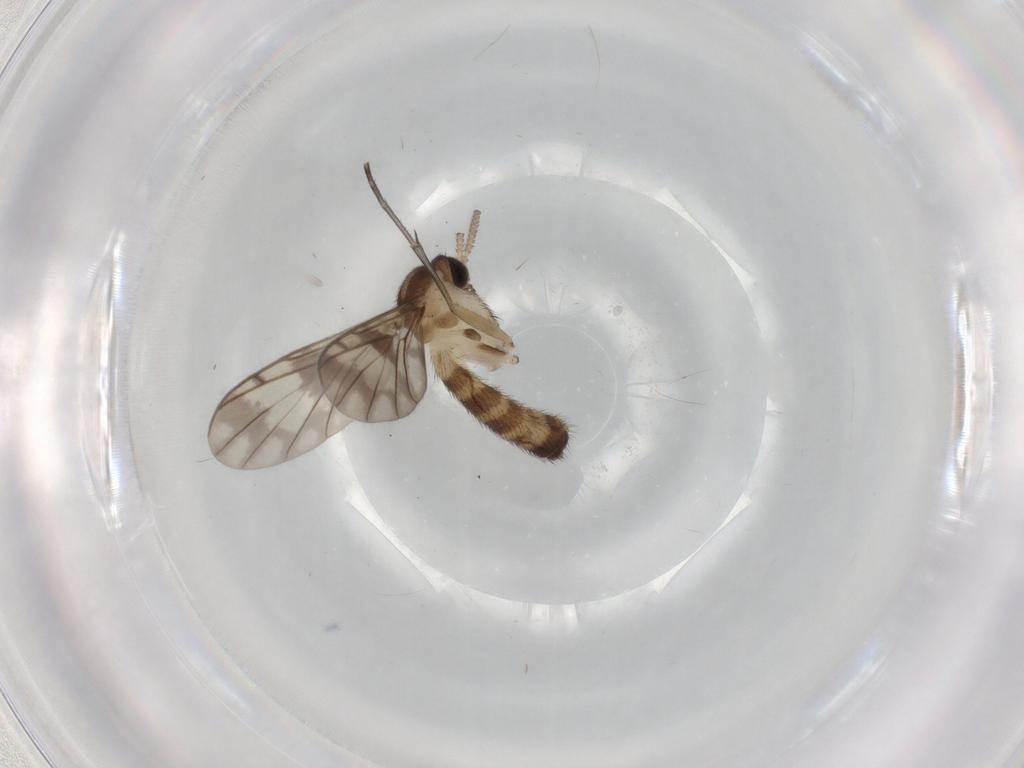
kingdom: Animalia
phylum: Arthropoda
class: Insecta
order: Diptera
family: Keroplatidae
